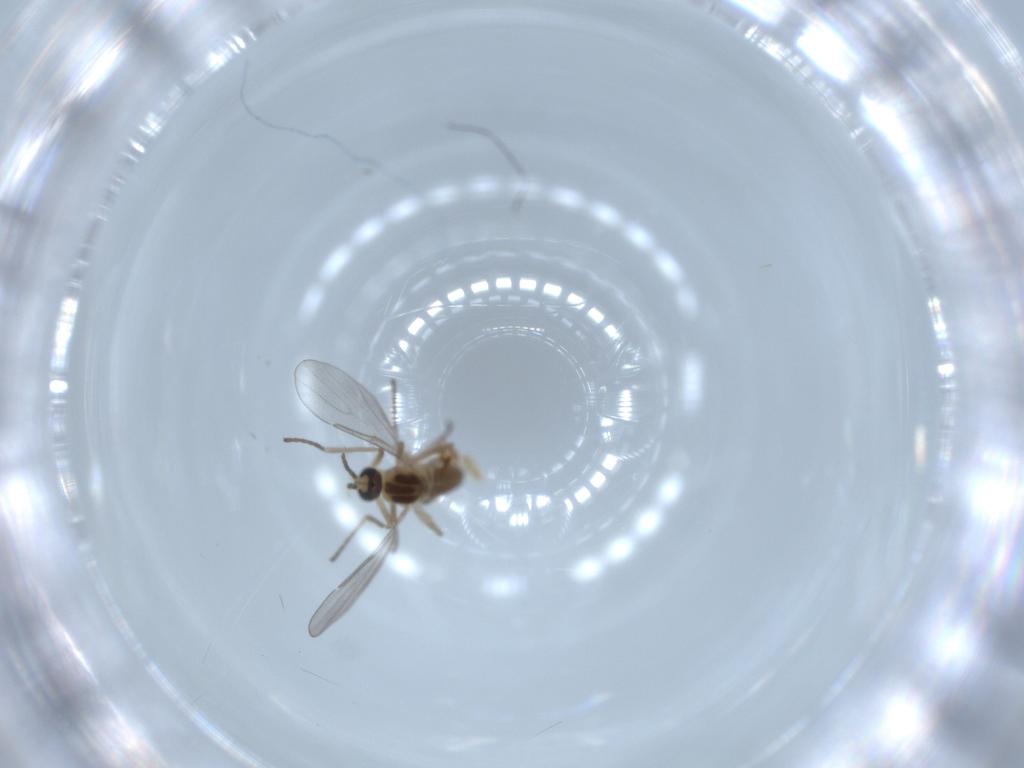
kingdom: Animalia
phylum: Arthropoda
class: Insecta
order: Diptera
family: Cecidomyiidae
